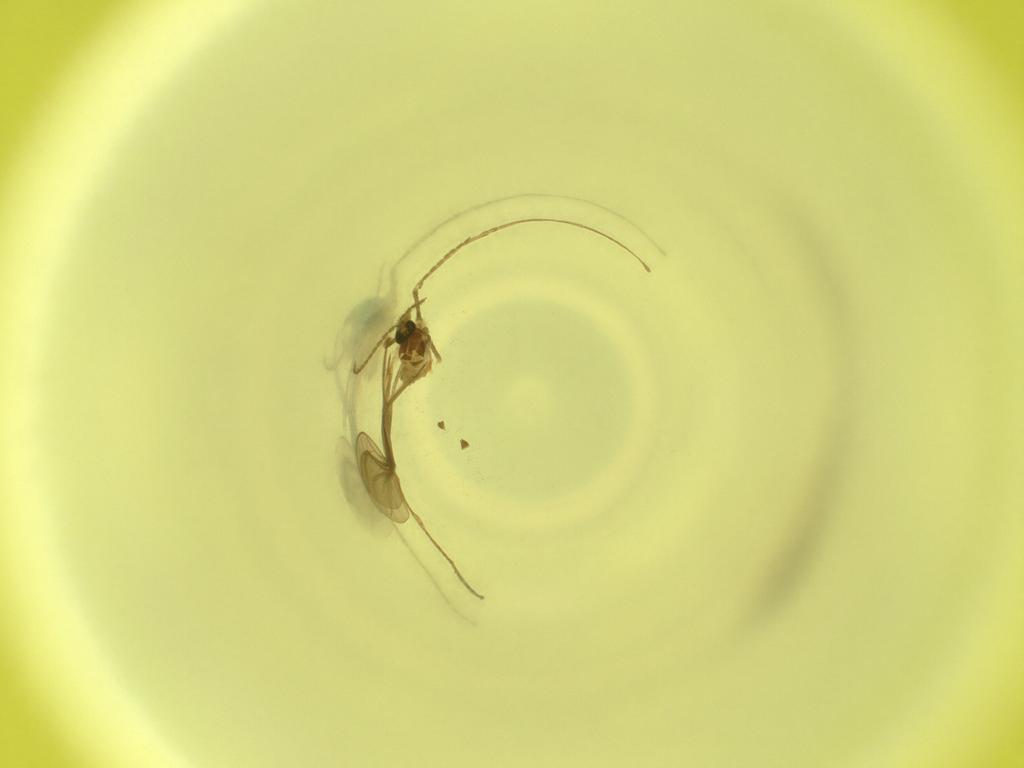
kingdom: Animalia
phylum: Arthropoda
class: Insecta
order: Diptera
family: Cecidomyiidae
